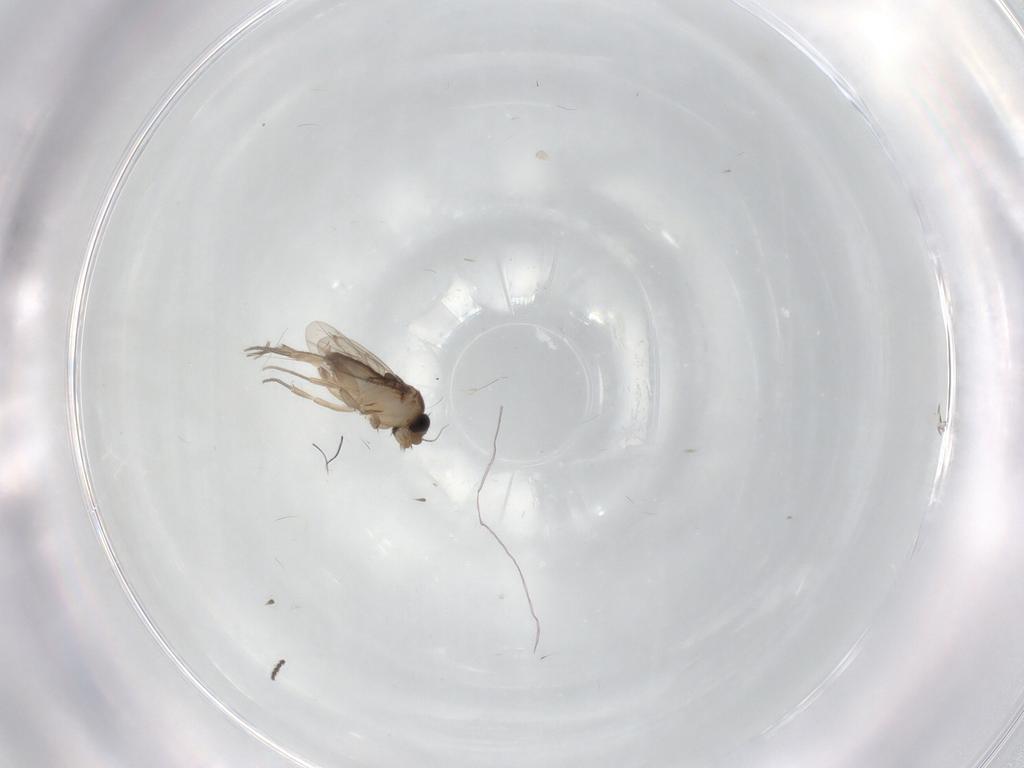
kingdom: Animalia
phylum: Arthropoda
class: Insecta
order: Diptera
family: Phoridae
